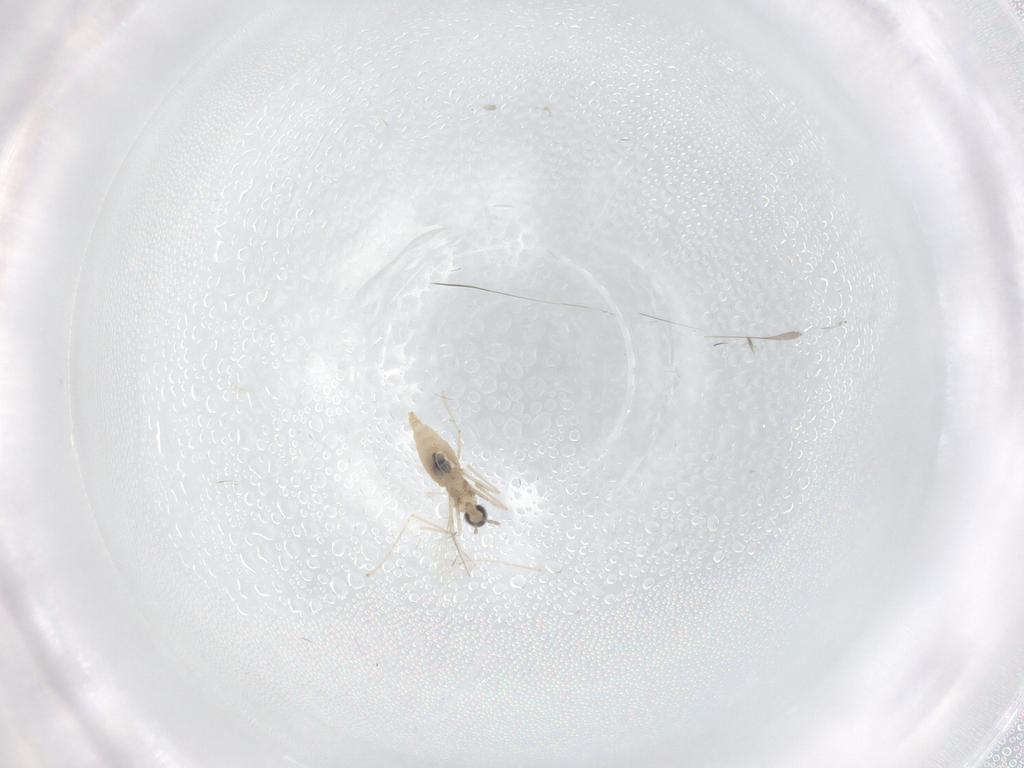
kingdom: Animalia
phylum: Arthropoda
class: Insecta
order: Diptera
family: Cecidomyiidae
